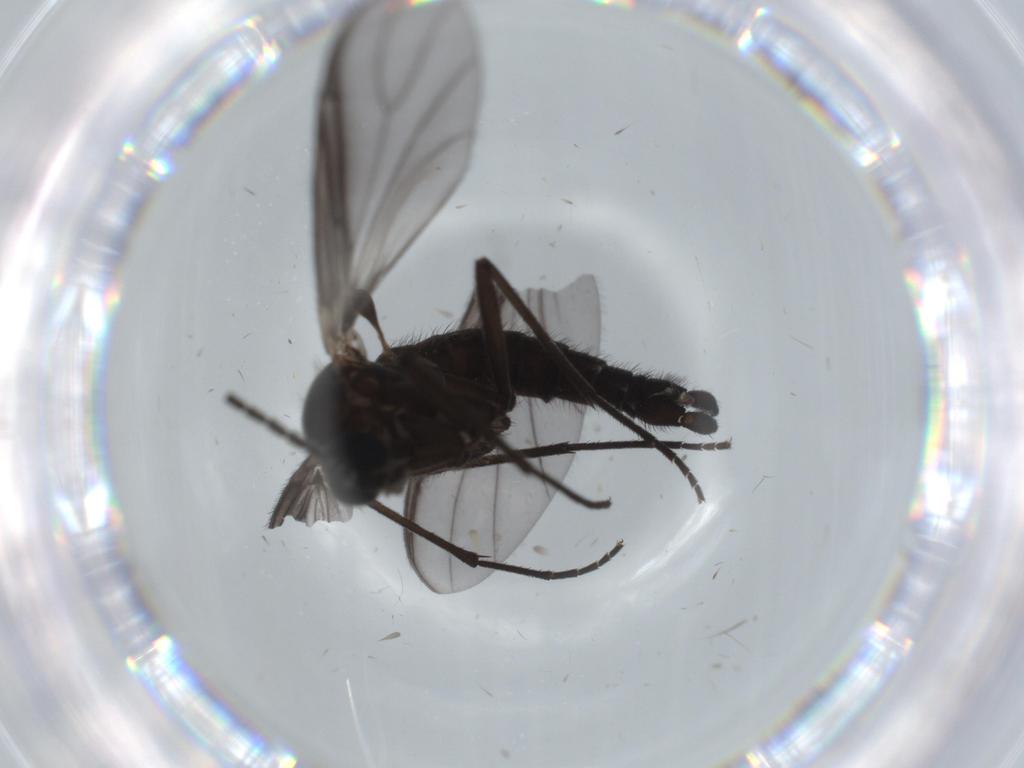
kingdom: Animalia
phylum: Arthropoda
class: Insecta
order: Diptera
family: Cecidomyiidae
